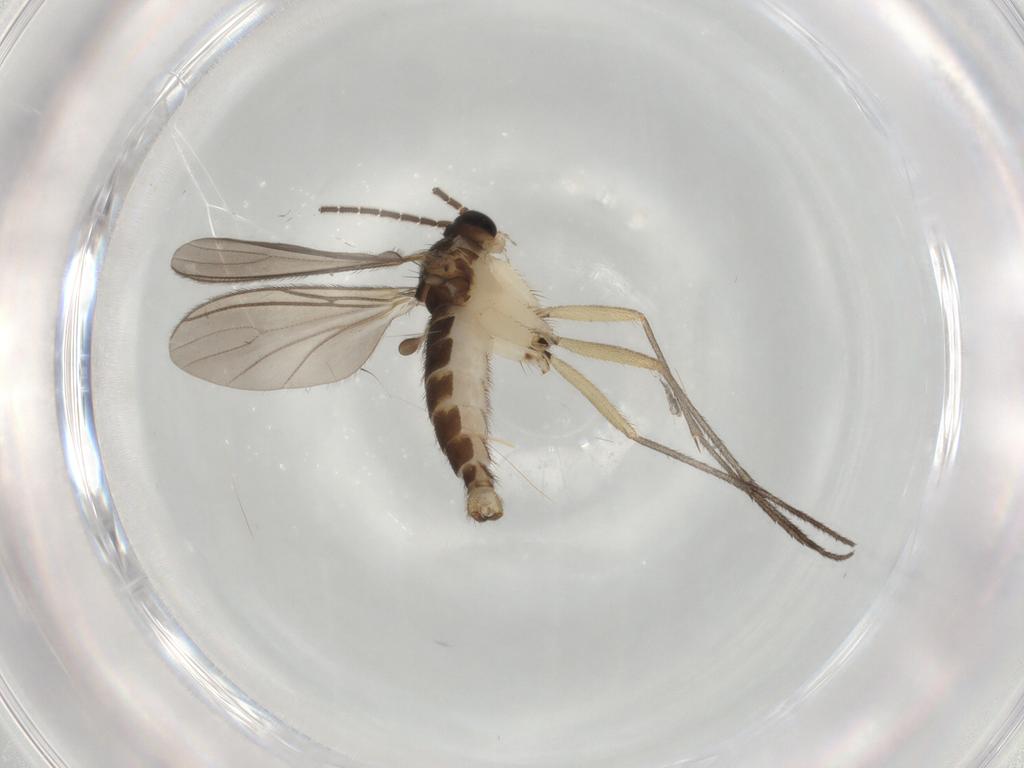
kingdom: Animalia
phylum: Arthropoda
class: Insecta
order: Diptera
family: Sciaridae
